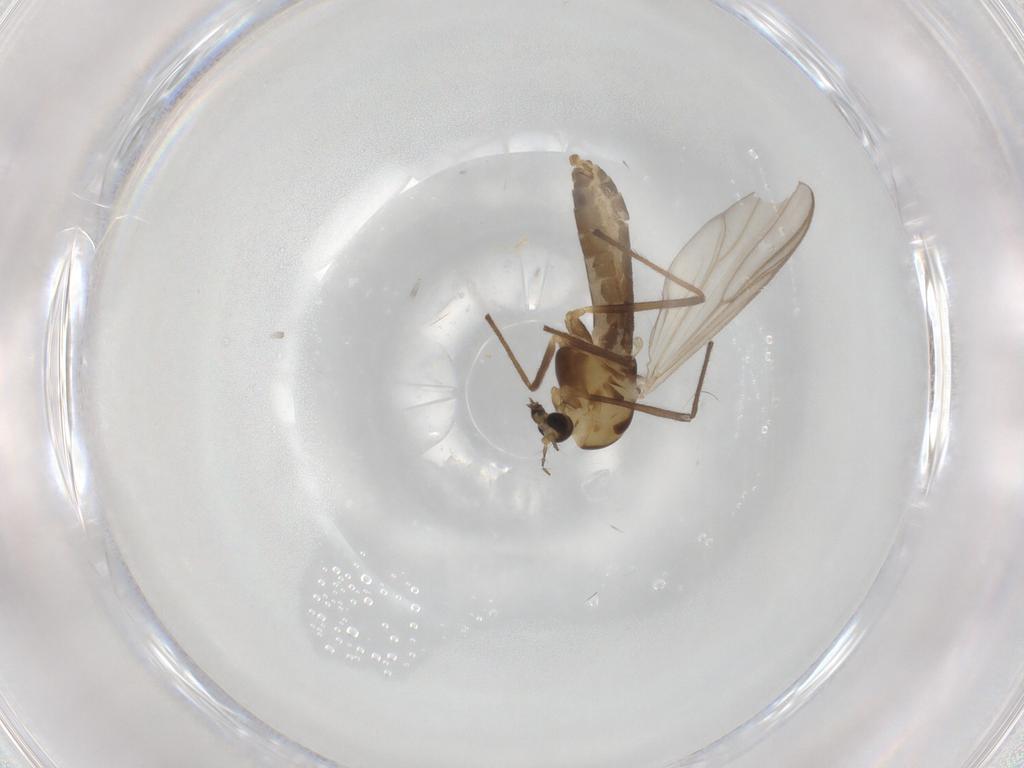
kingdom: Animalia
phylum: Arthropoda
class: Insecta
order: Diptera
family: Chironomidae
